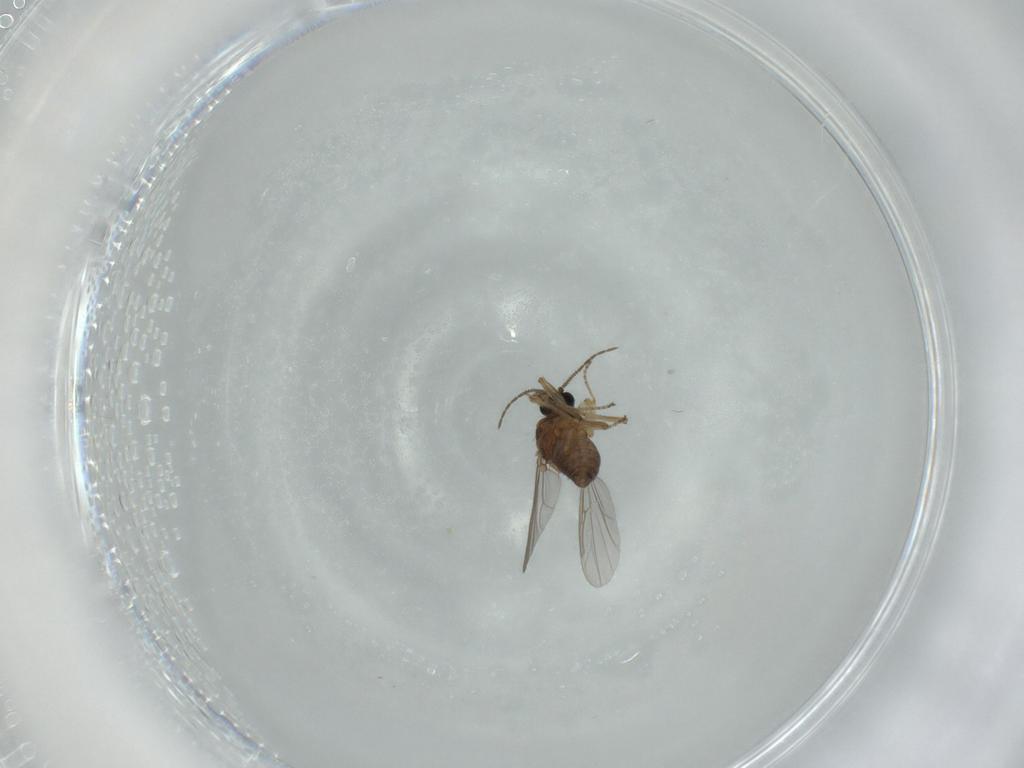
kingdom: Animalia
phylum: Arthropoda
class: Insecta
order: Diptera
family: Ceratopogonidae
